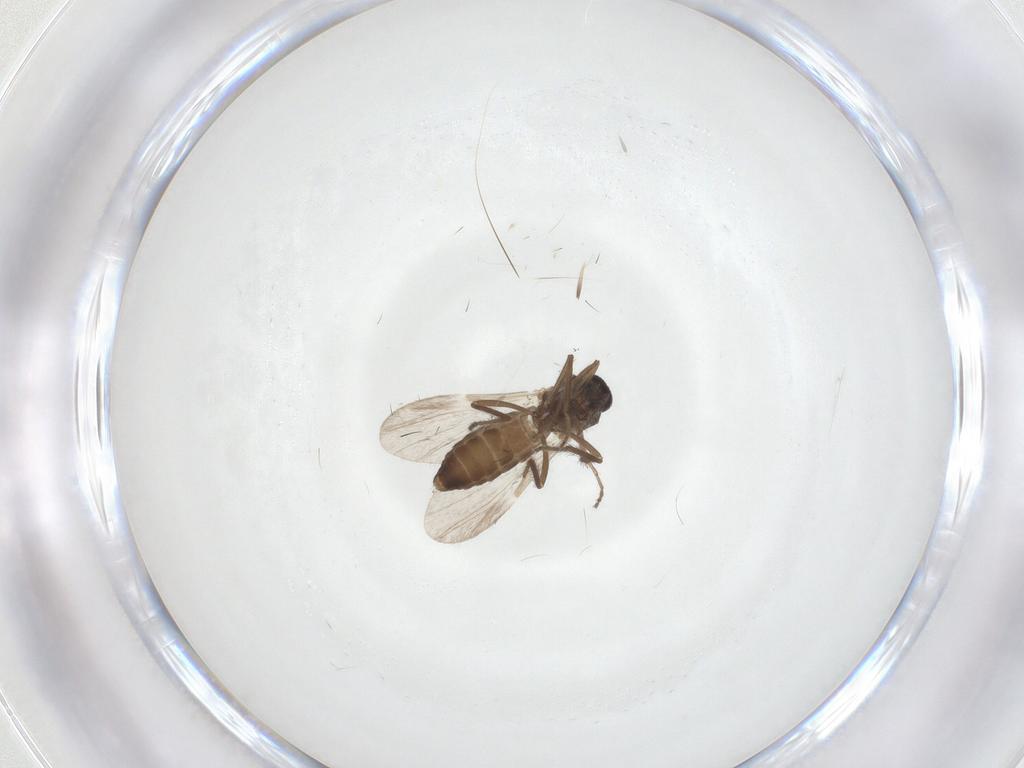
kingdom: Animalia
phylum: Arthropoda
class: Insecta
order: Diptera
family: Ceratopogonidae
